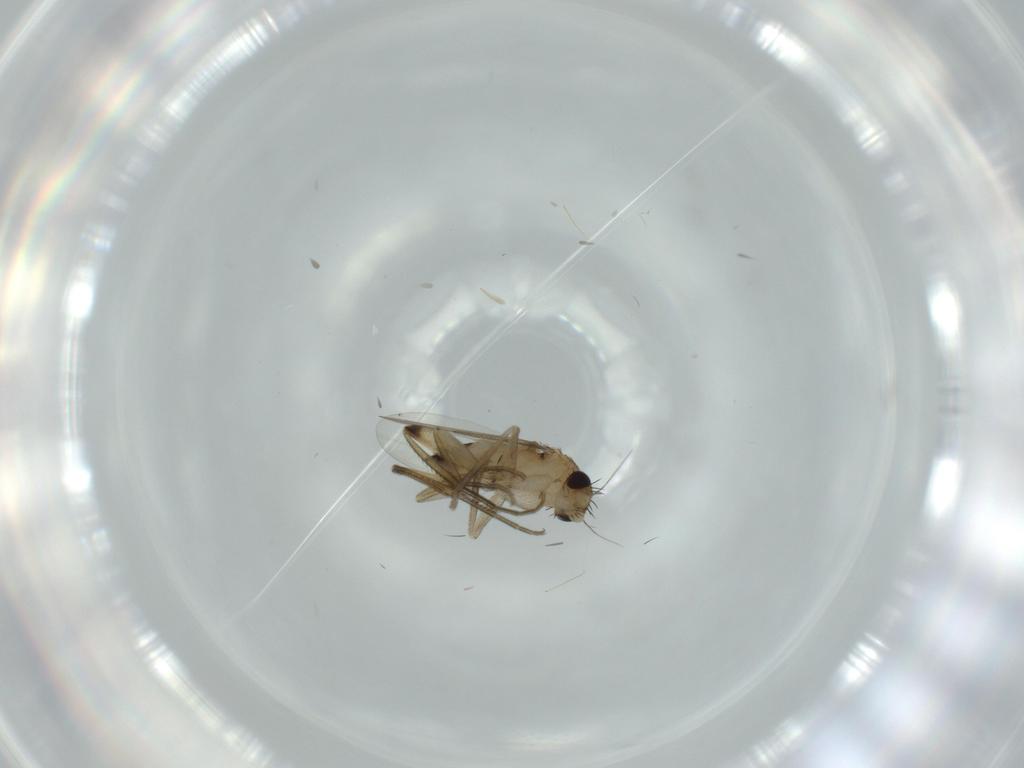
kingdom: Animalia
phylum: Arthropoda
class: Insecta
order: Diptera
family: Phoridae
